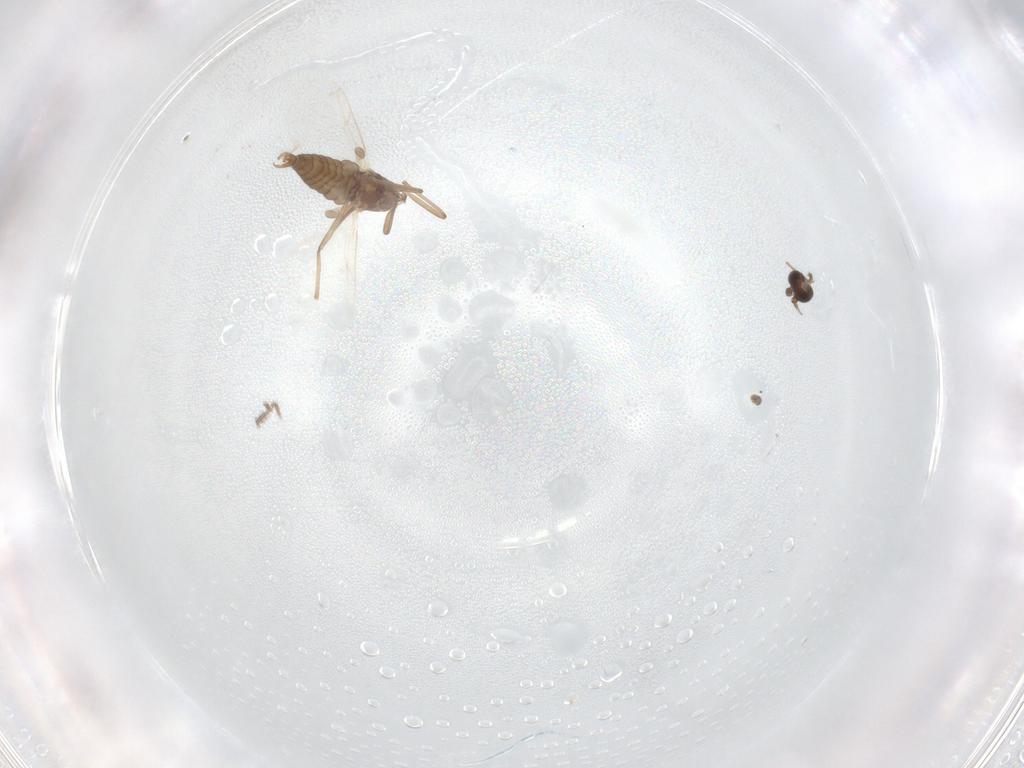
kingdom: Animalia
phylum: Arthropoda
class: Insecta
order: Diptera
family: Cecidomyiidae
